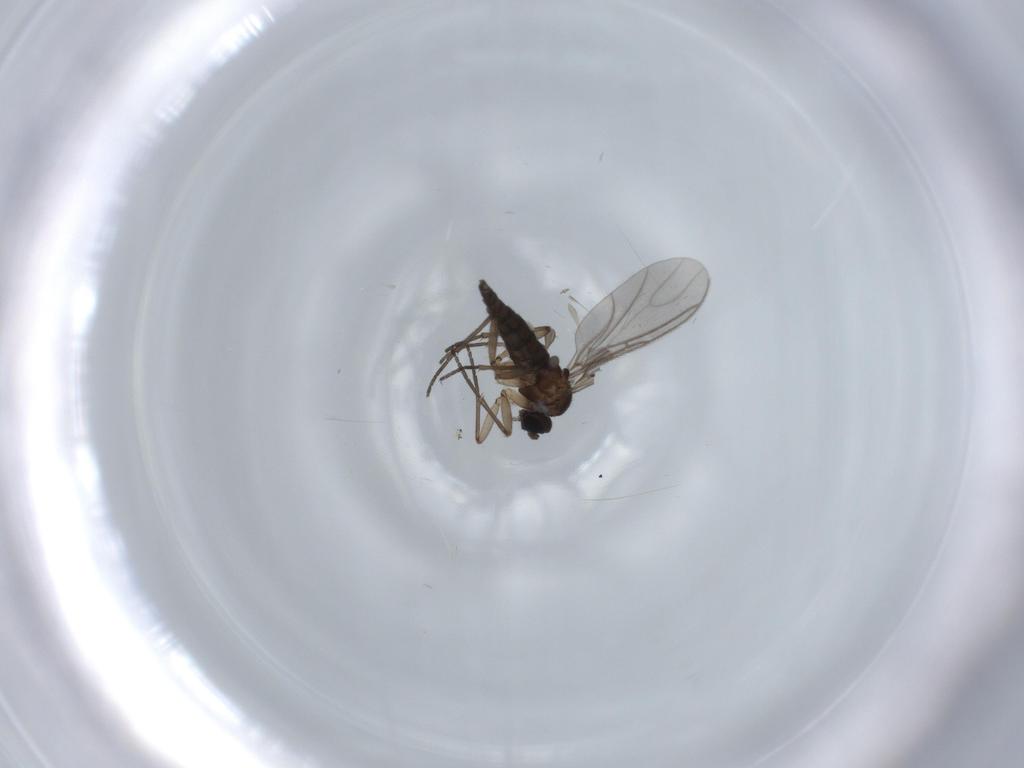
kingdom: Animalia
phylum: Arthropoda
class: Insecta
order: Diptera
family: Sciaridae
